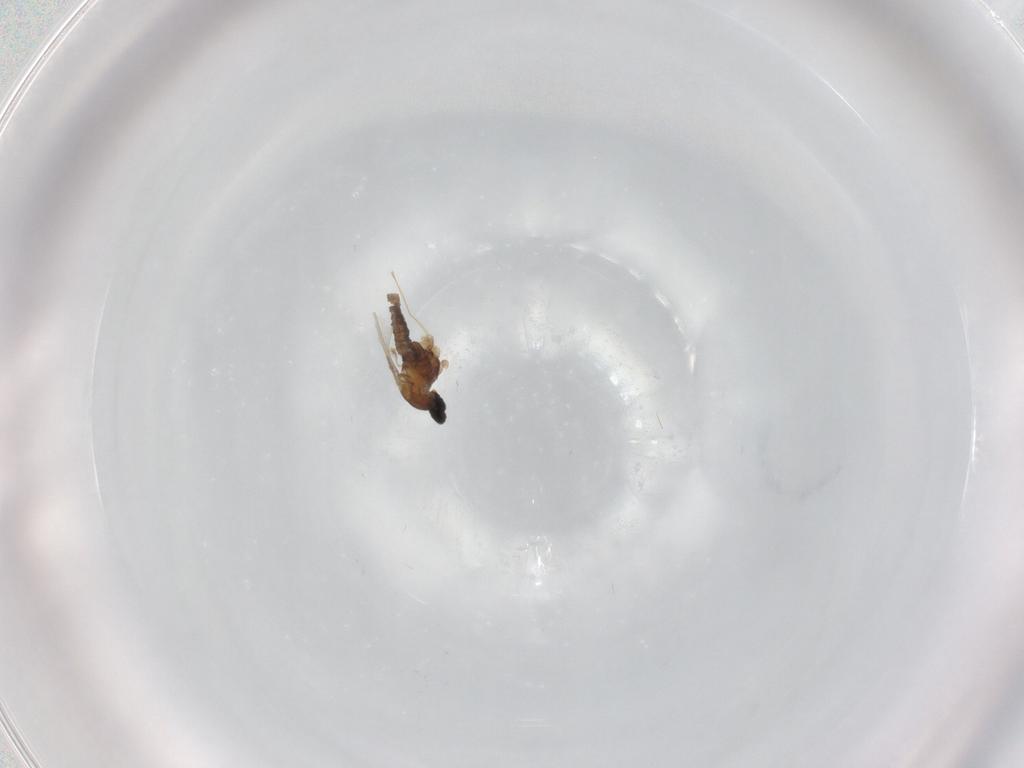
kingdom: Animalia
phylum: Arthropoda
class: Insecta
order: Diptera
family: Cecidomyiidae
